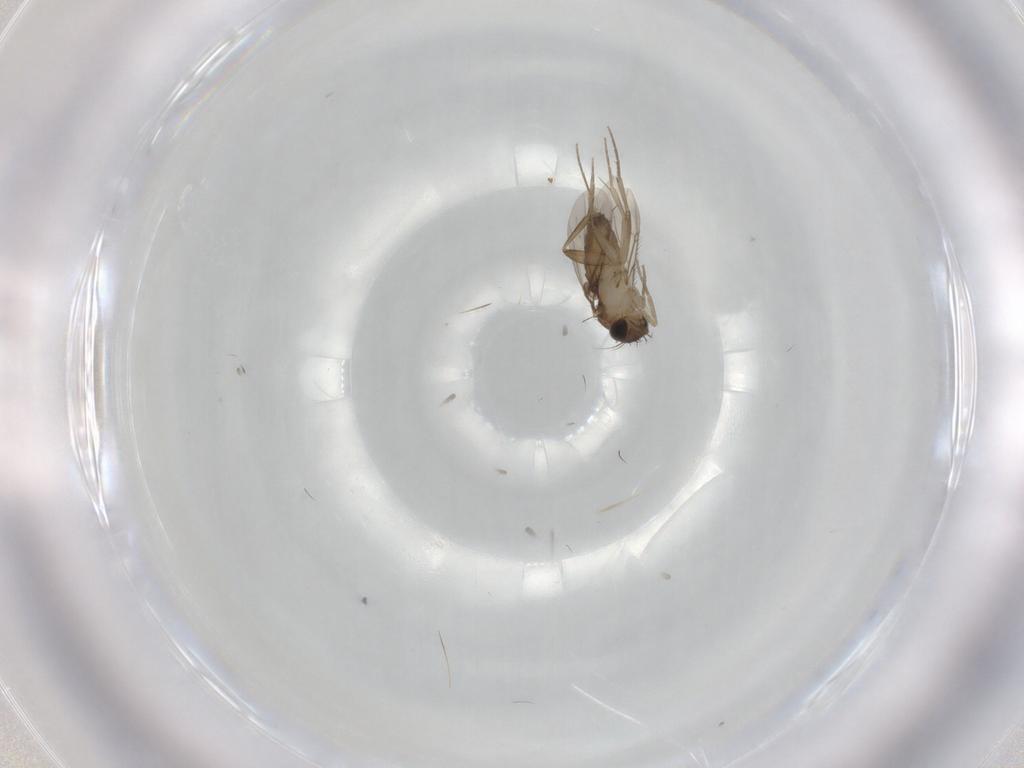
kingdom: Animalia
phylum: Arthropoda
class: Insecta
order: Diptera
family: Phoridae
